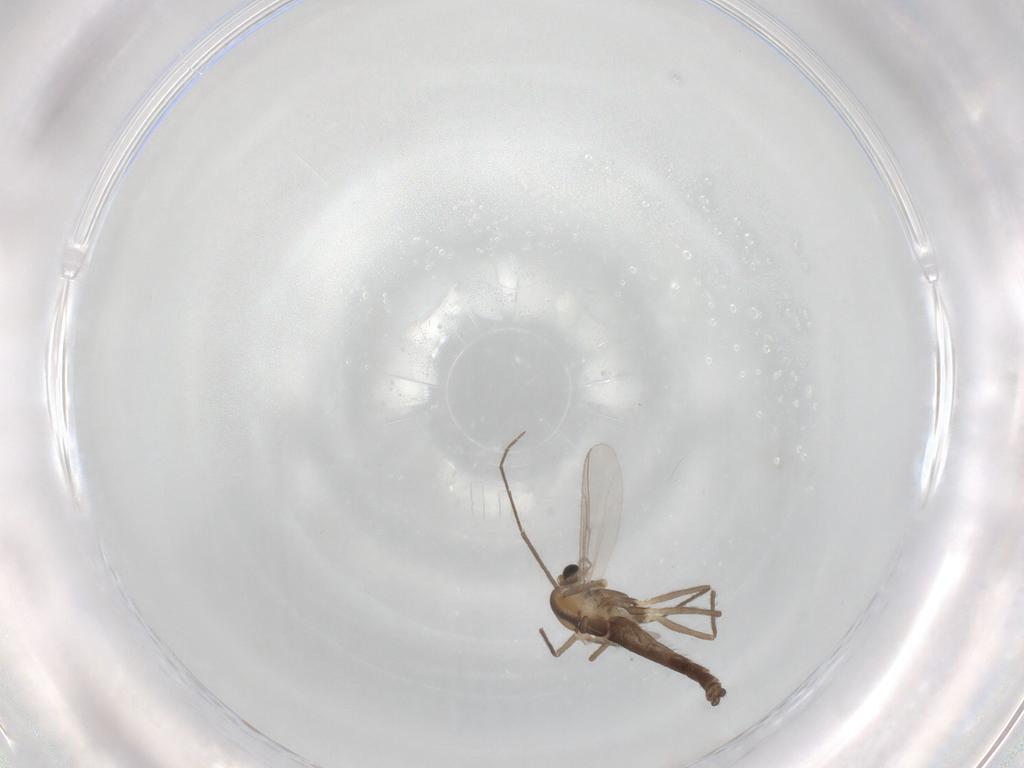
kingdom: Animalia
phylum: Arthropoda
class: Insecta
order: Diptera
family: Chironomidae
